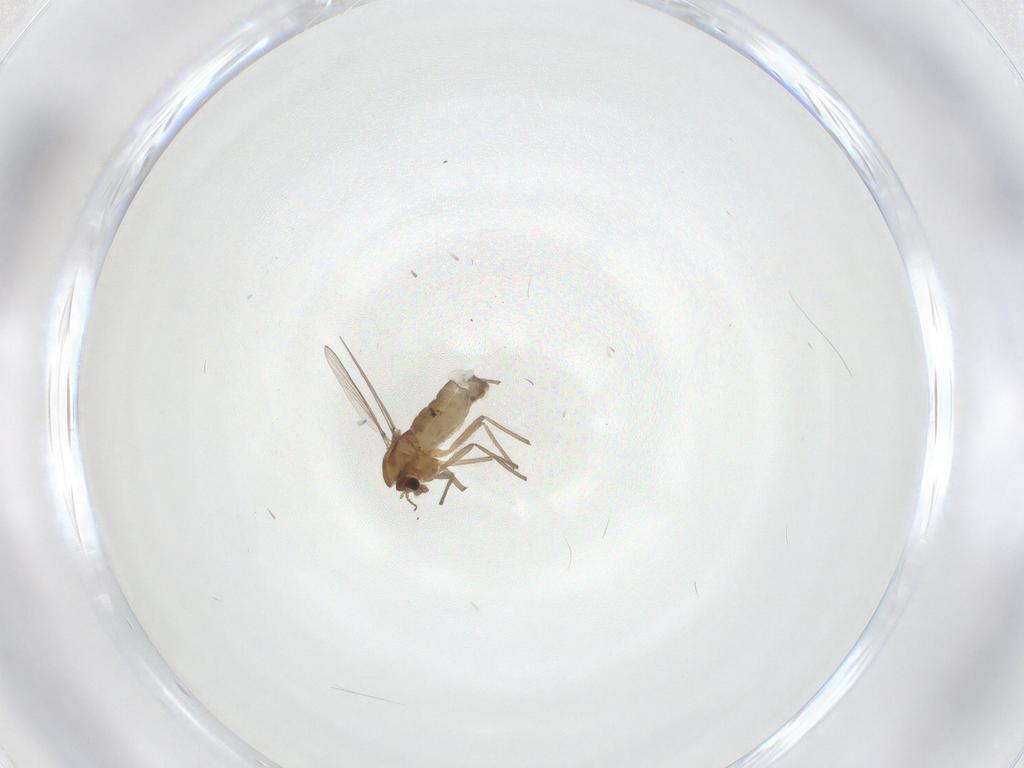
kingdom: Animalia
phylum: Arthropoda
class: Insecta
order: Diptera
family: Chironomidae
